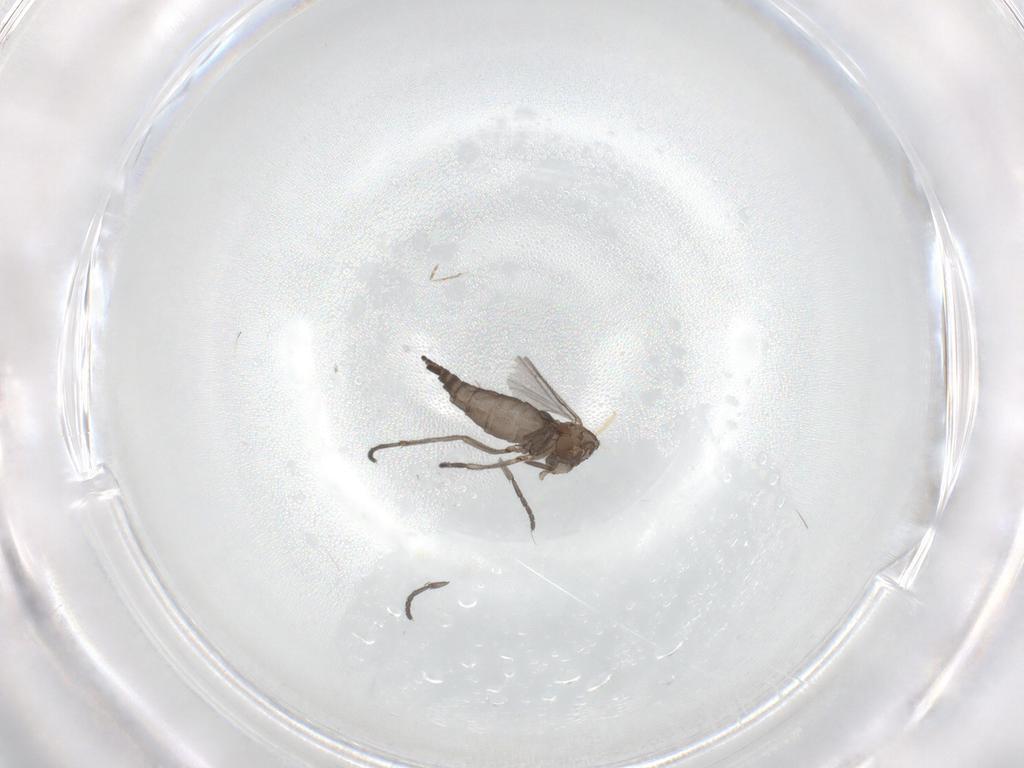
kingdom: Animalia
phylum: Arthropoda
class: Insecta
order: Diptera
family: Sciaridae
